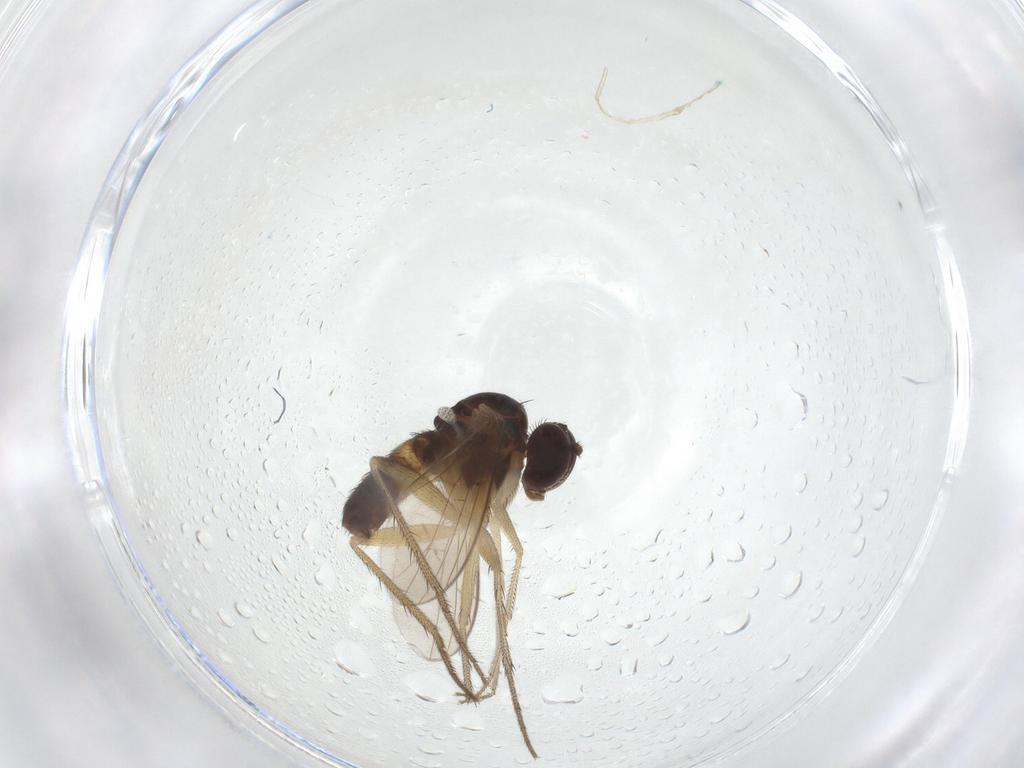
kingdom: Animalia
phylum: Arthropoda
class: Insecta
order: Diptera
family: Dolichopodidae
